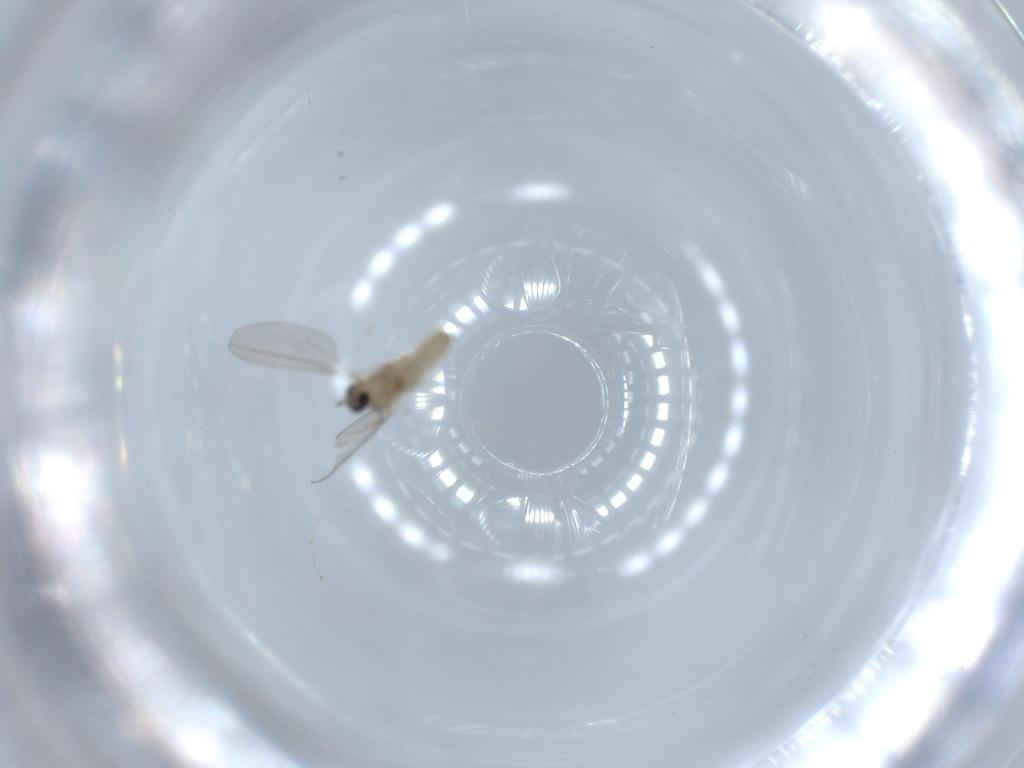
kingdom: Animalia
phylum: Arthropoda
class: Insecta
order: Diptera
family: Cecidomyiidae
